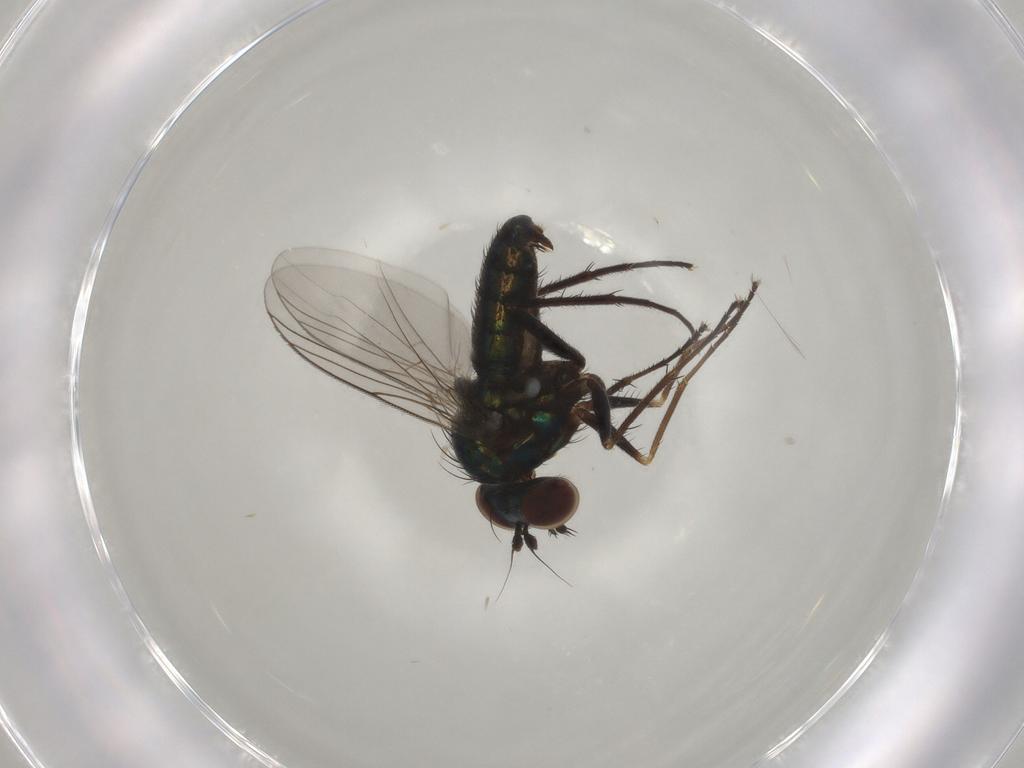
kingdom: Animalia
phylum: Arthropoda
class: Insecta
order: Diptera
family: Dolichopodidae
